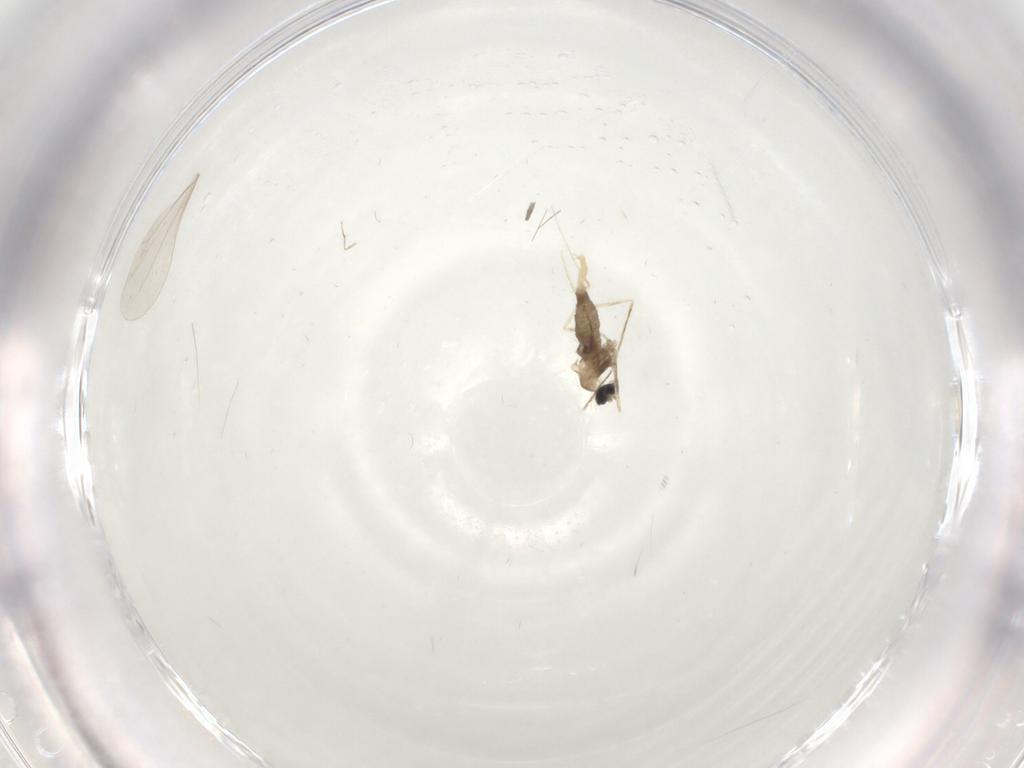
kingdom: Animalia
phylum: Arthropoda
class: Insecta
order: Diptera
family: Cecidomyiidae
